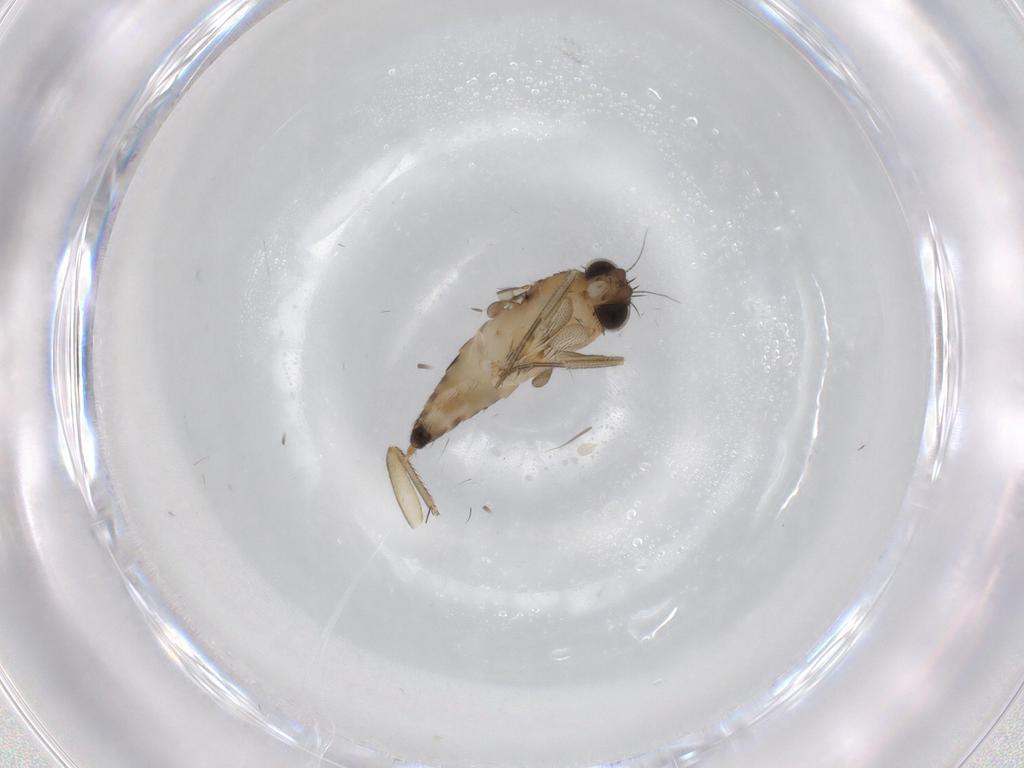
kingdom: Animalia
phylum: Arthropoda
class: Insecta
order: Diptera
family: Phoridae
